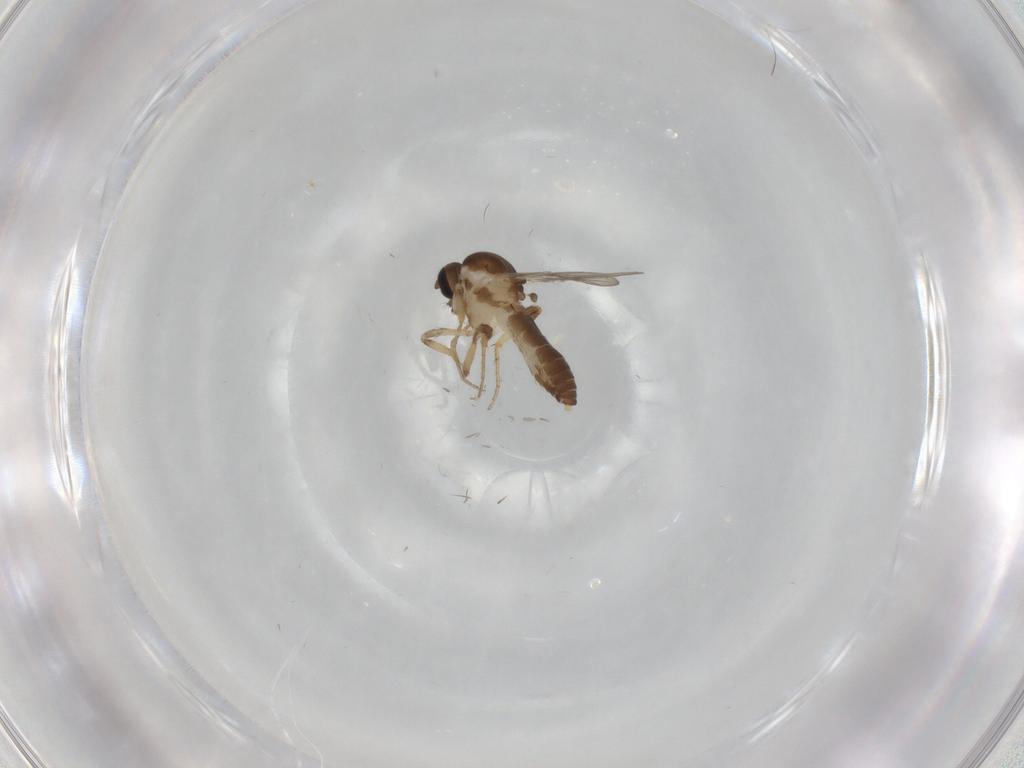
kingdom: Animalia
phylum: Arthropoda
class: Insecta
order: Diptera
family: Ceratopogonidae
